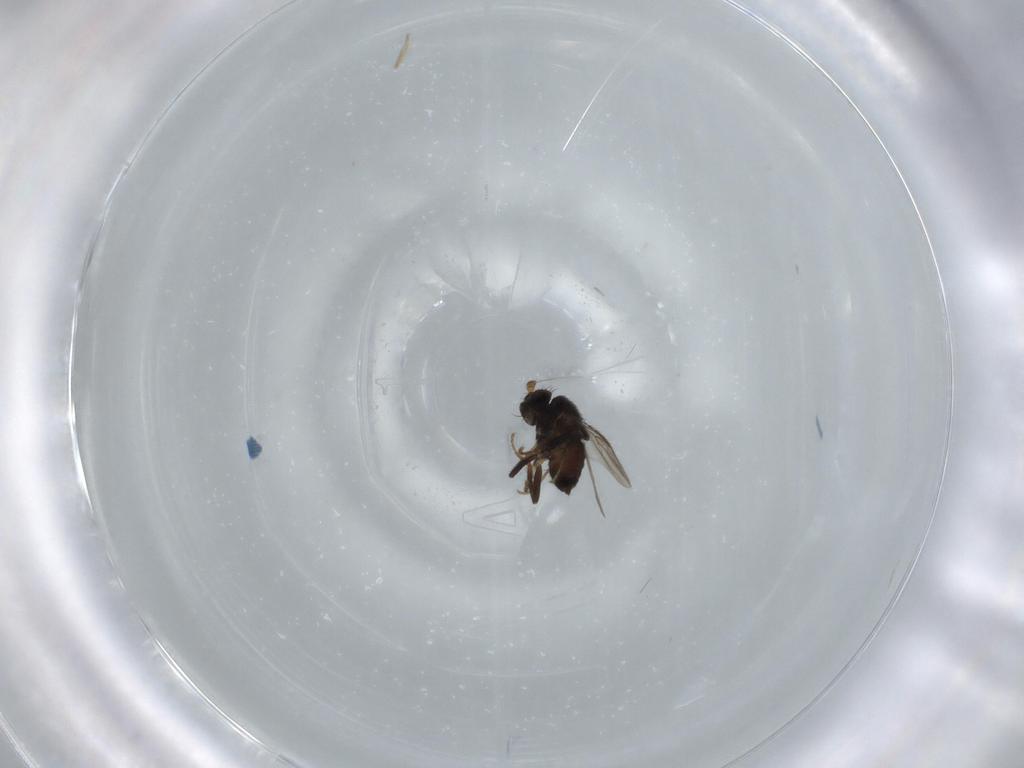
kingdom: Animalia
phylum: Arthropoda
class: Insecta
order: Diptera
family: Sphaeroceridae
